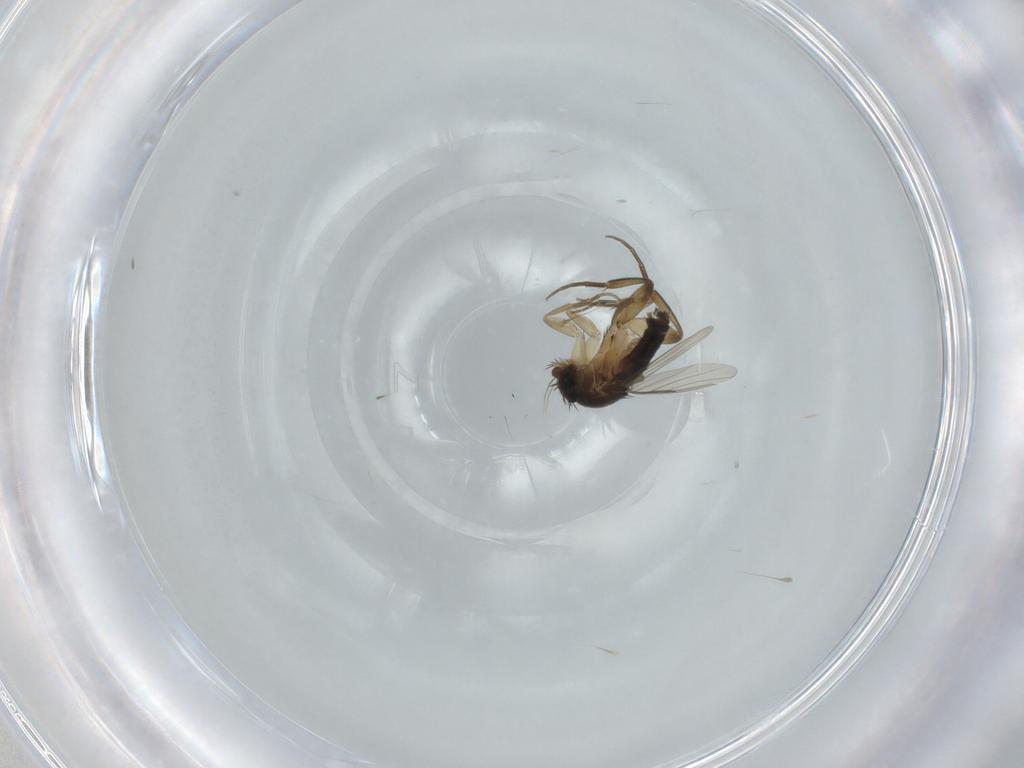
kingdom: Animalia
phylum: Arthropoda
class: Insecta
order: Diptera
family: Phoridae
